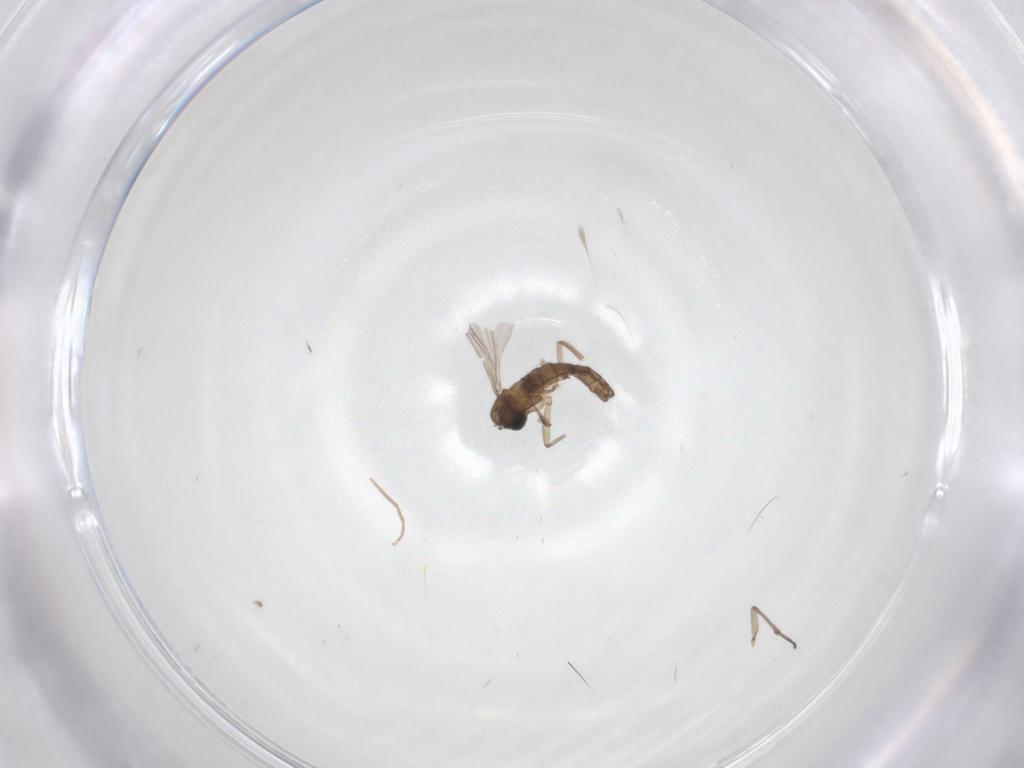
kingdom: Animalia
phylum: Arthropoda
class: Insecta
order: Diptera
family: Sciaridae
